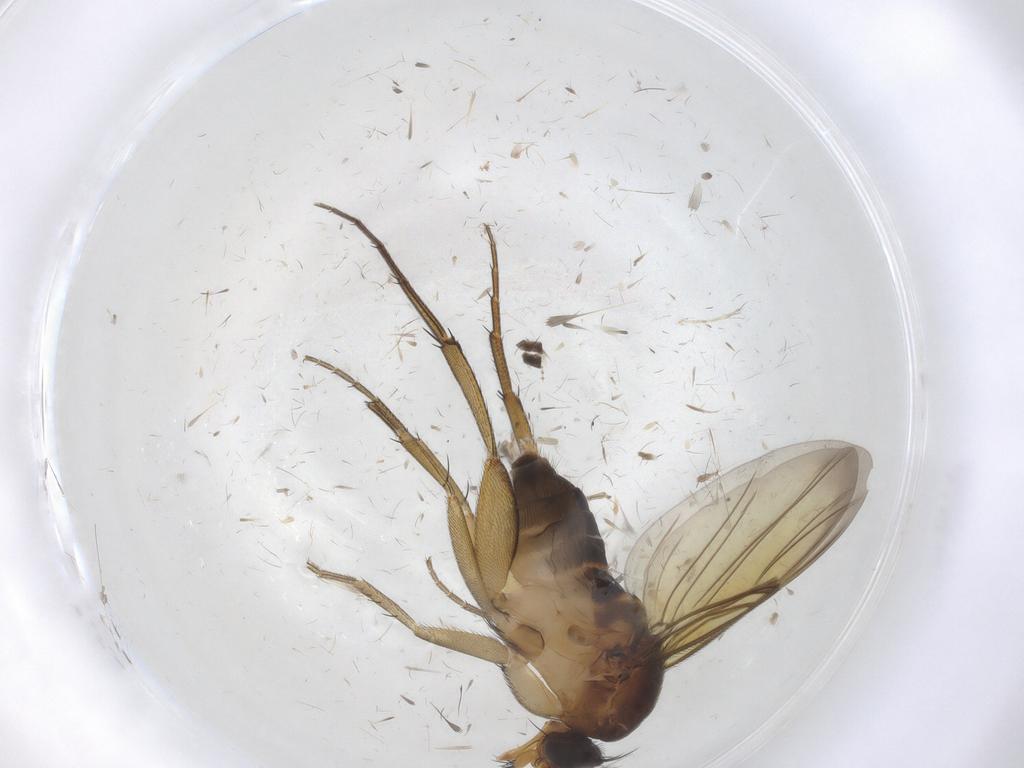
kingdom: Animalia
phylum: Arthropoda
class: Insecta
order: Diptera
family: Phoridae
